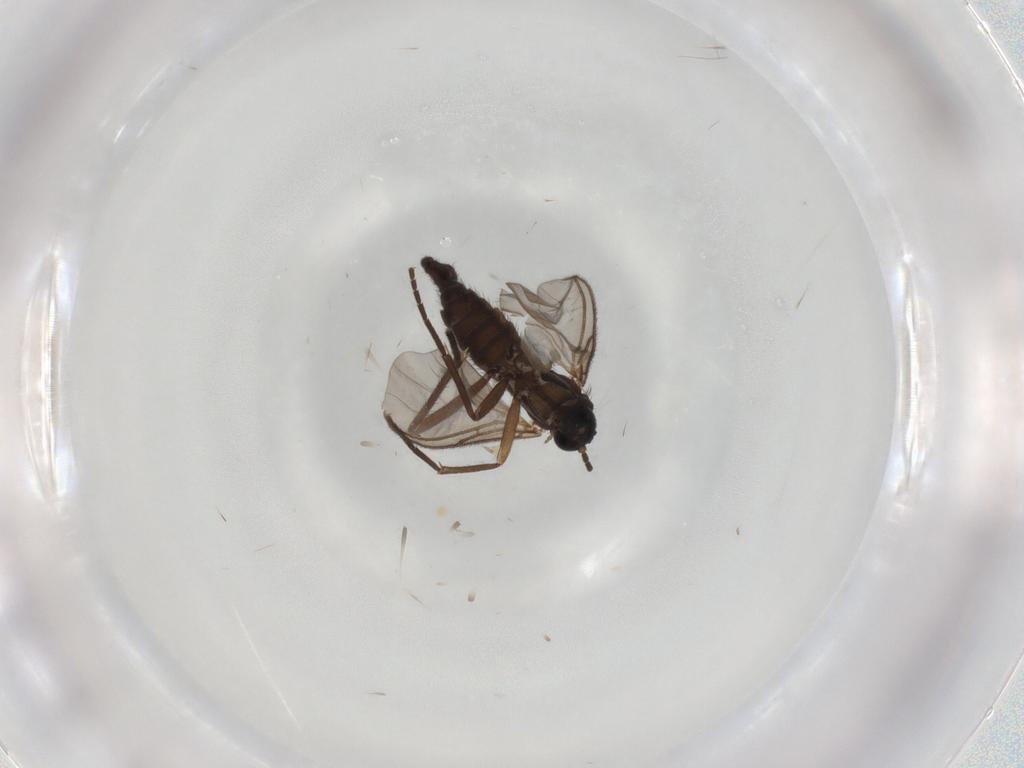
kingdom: Animalia
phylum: Arthropoda
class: Insecta
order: Diptera
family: Sciaridae
